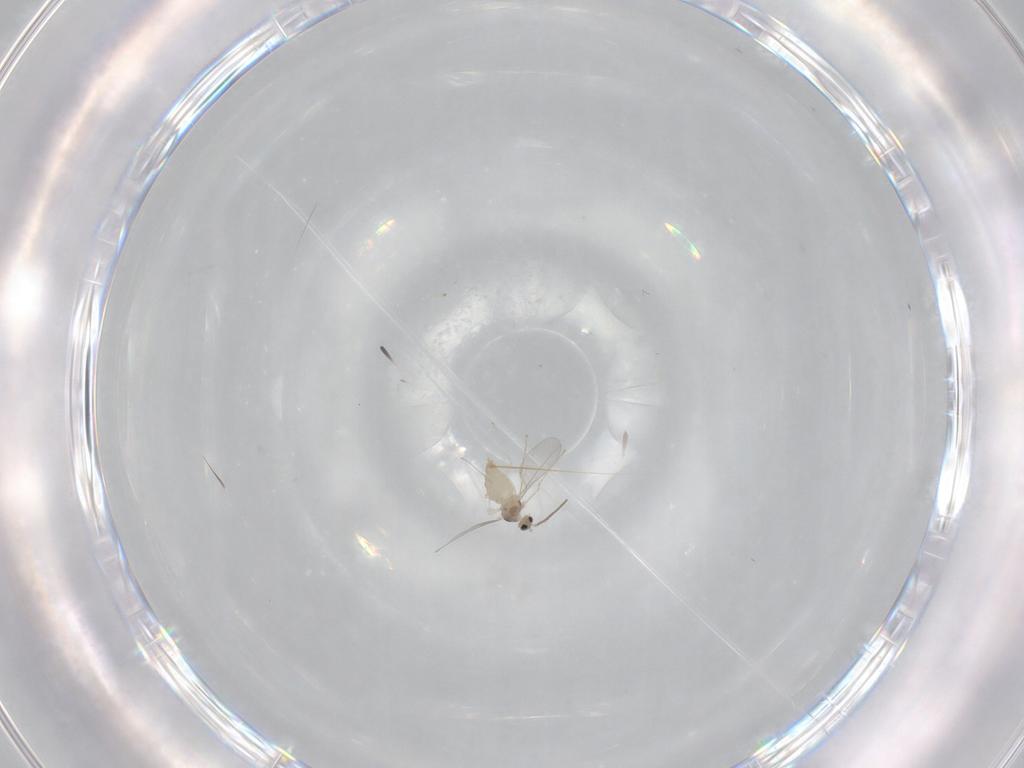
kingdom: Animalia
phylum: Arthropoda
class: Insecta
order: Diptera
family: Cecidomyiidae
